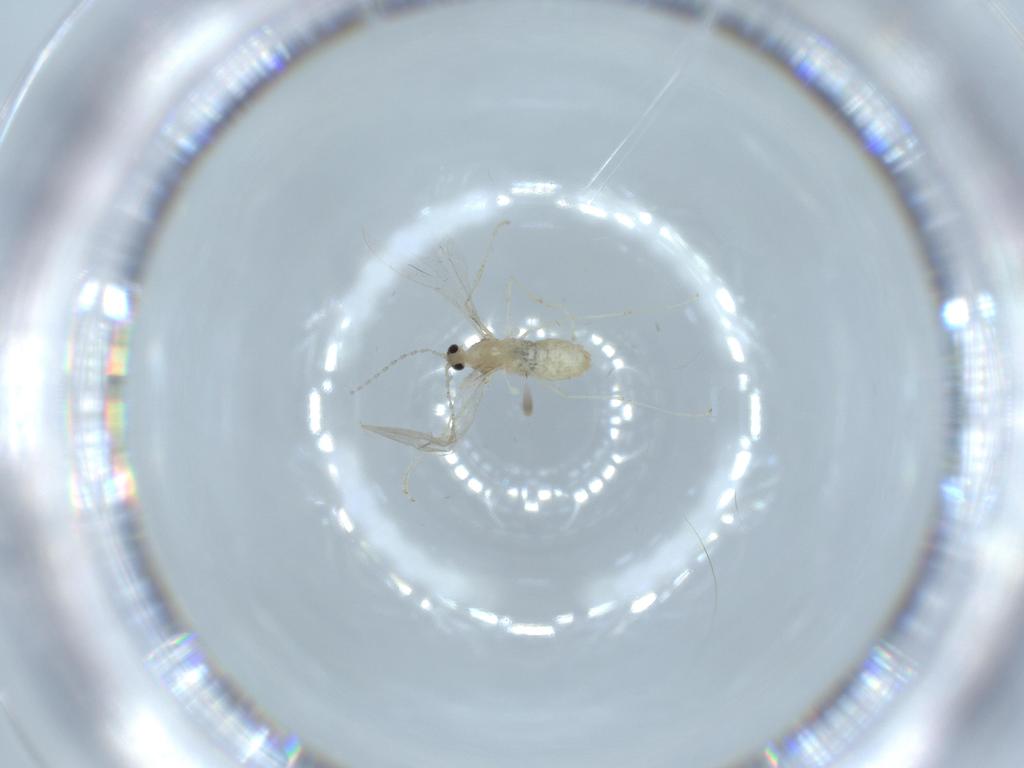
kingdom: Animalia
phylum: Arthropoda
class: Insecta
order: Diptera
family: Cecidomyiidae
